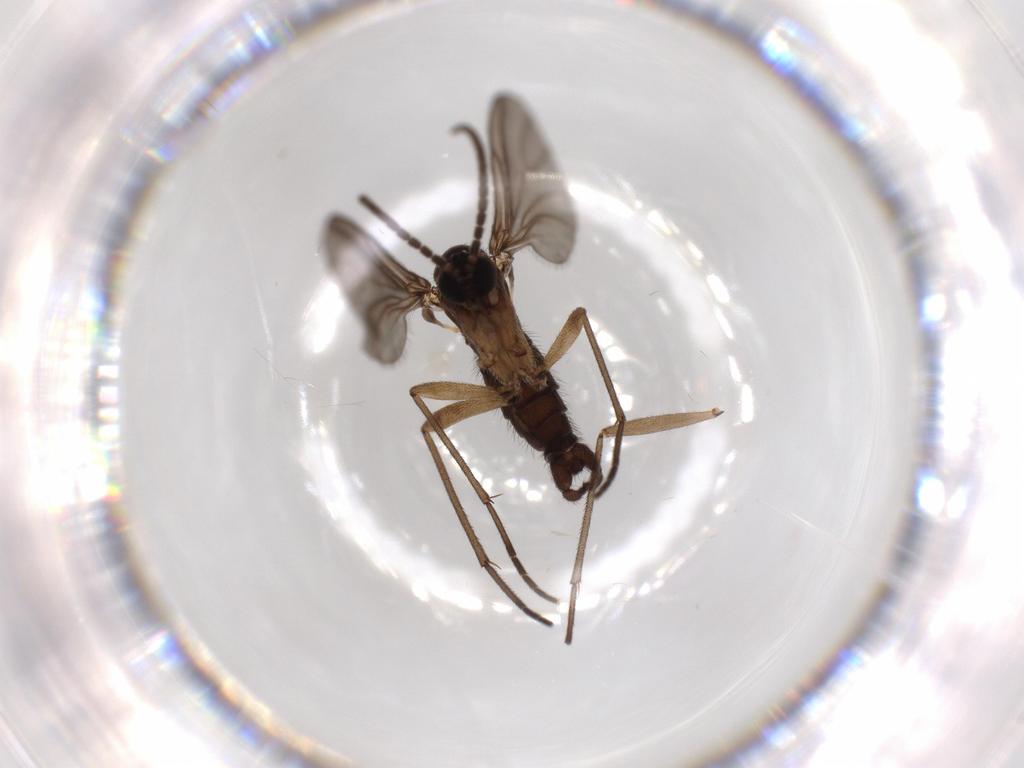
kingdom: Animalia
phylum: Arthropoda
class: Insecta
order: Diptera
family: Sciaridae
